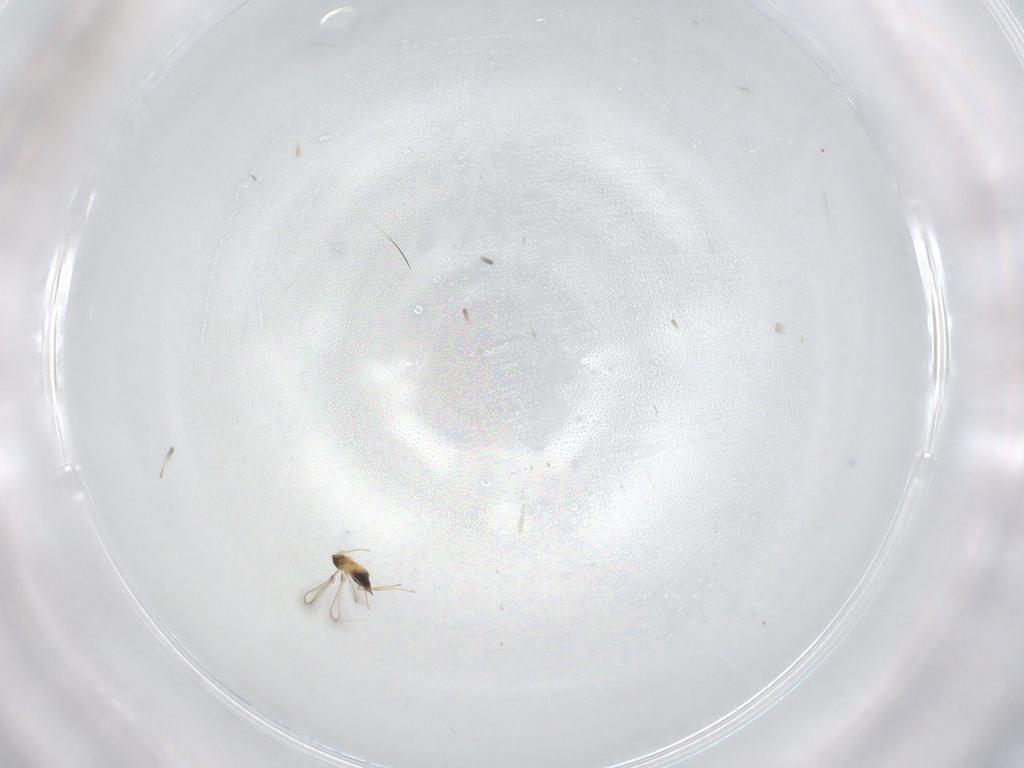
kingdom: Animalia
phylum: Arthropoda
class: Insecta
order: Hymenoptera
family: Mymaridae
